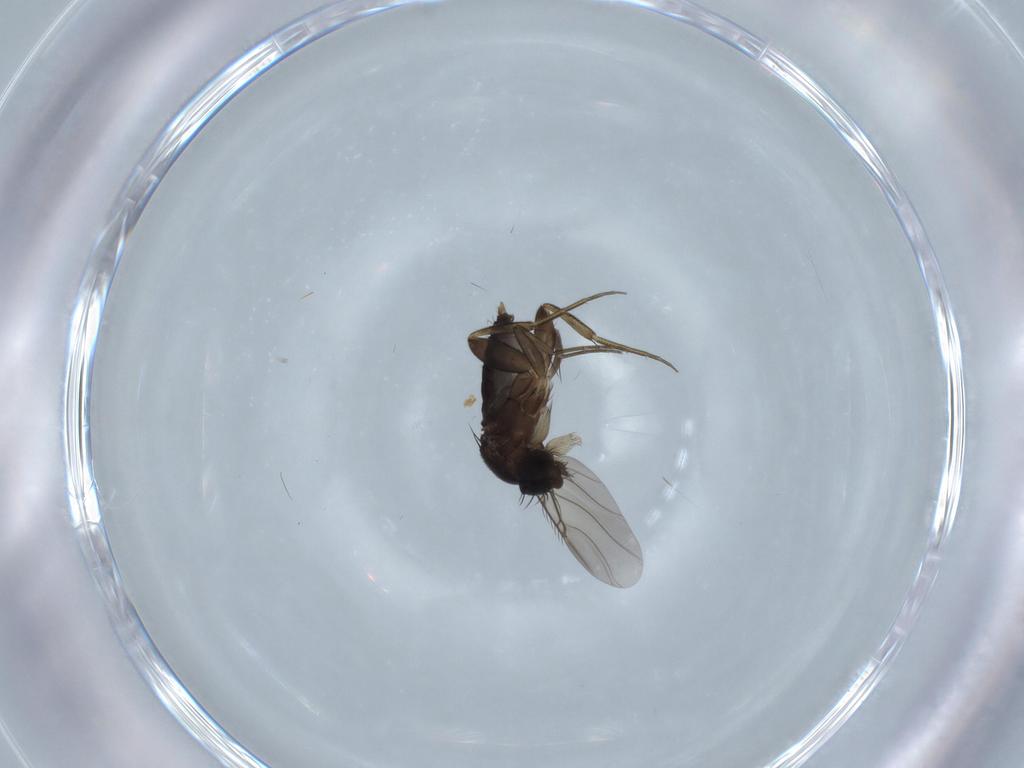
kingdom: Animalia
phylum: Arthropoda
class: Insecta
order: Diptera
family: Phoridae
